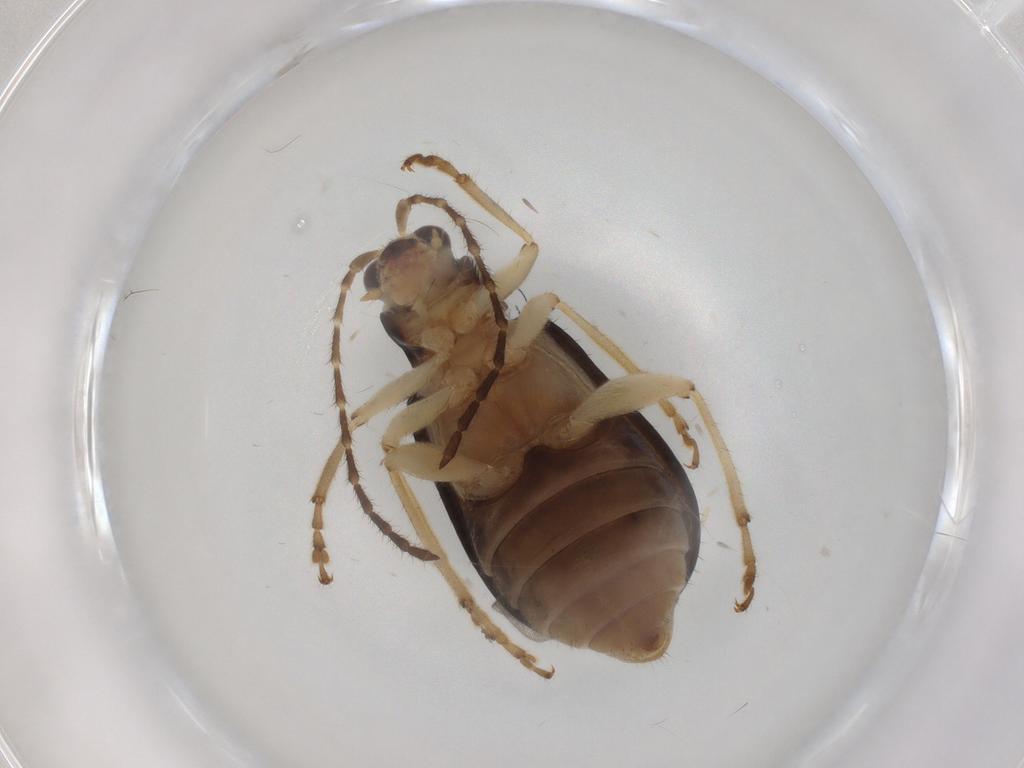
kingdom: Animalia
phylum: Arthropoda
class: Insecta
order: Coleoptera
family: Chrysomelidae
